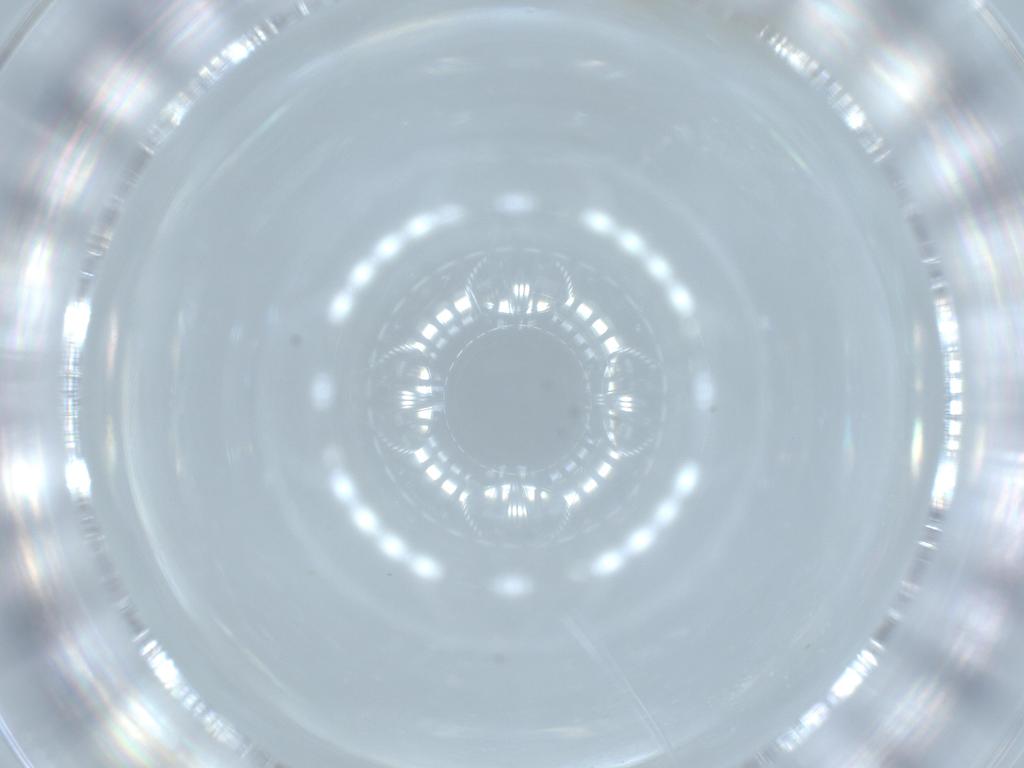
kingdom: Animalia
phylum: Arthropoda
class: Insecta
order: Diptera
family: Cecidomyiidae
